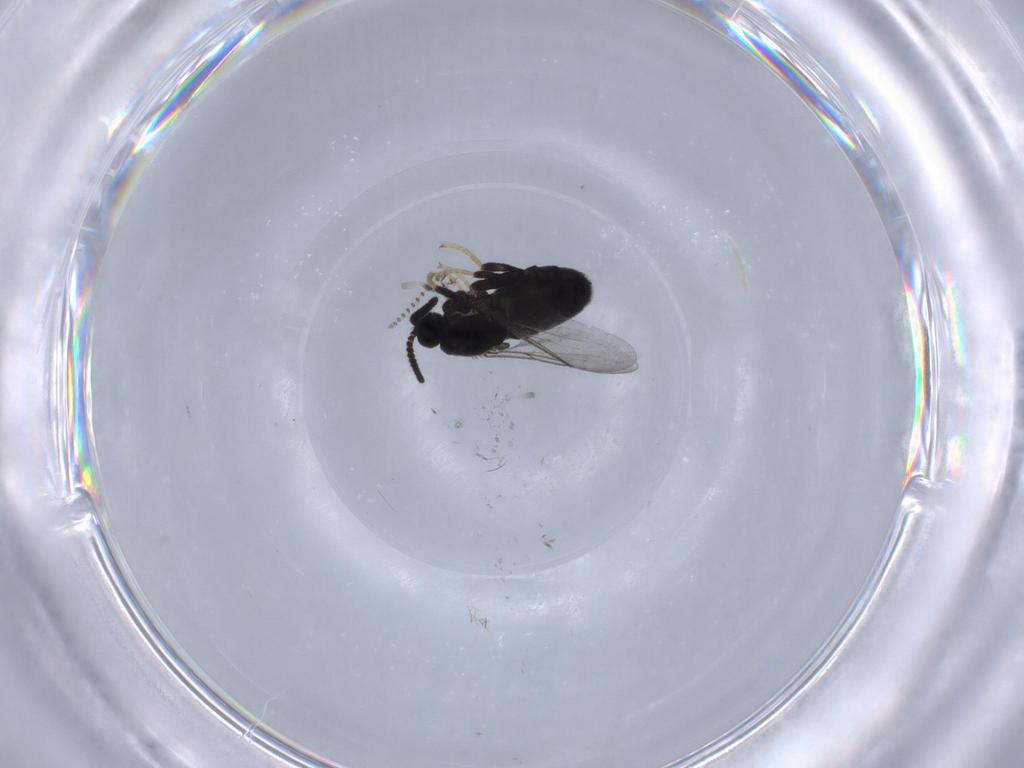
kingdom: Animalia
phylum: Arthropoda
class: Insecta
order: Diptera
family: Scatopsidae
